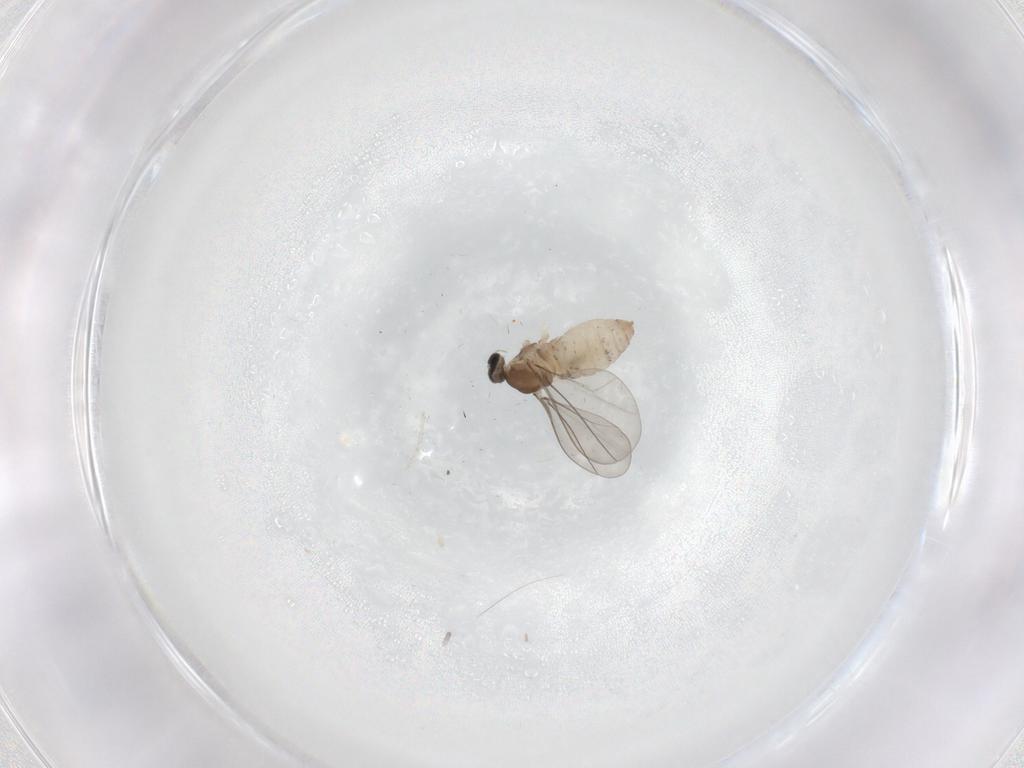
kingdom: Animalia
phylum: Arthropoda
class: Insecta
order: Diptera
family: Cecidomyiidae
